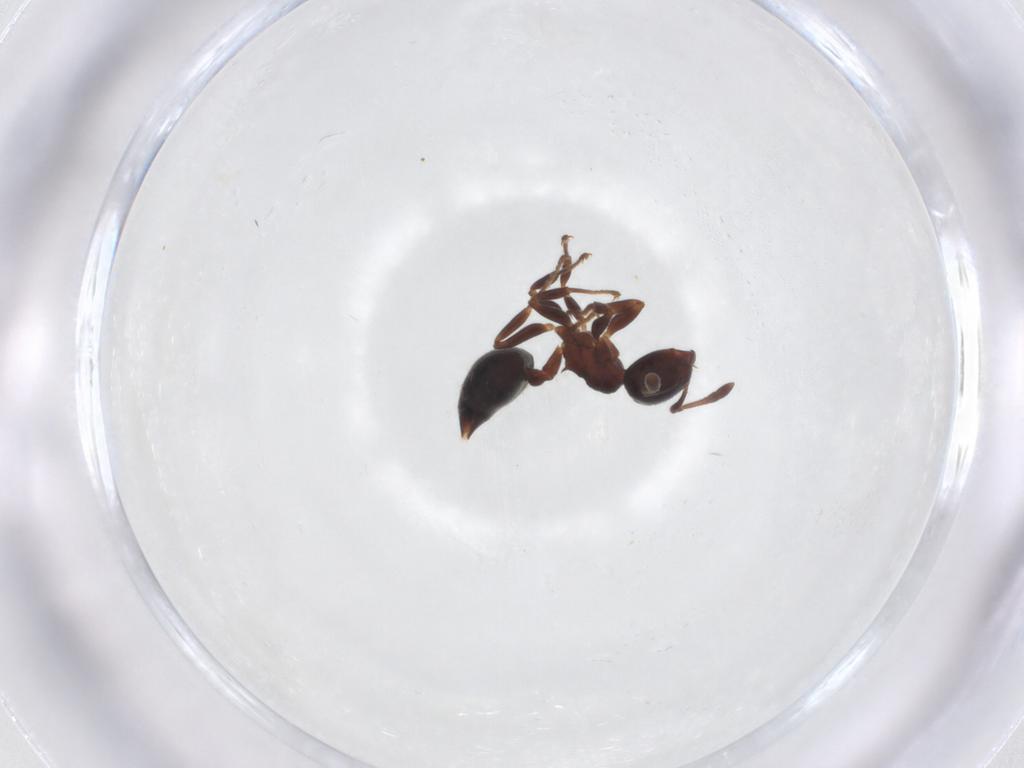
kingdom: Animalia
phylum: Arthropoda
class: Insecta
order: Hymenoptera
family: Formicidae
